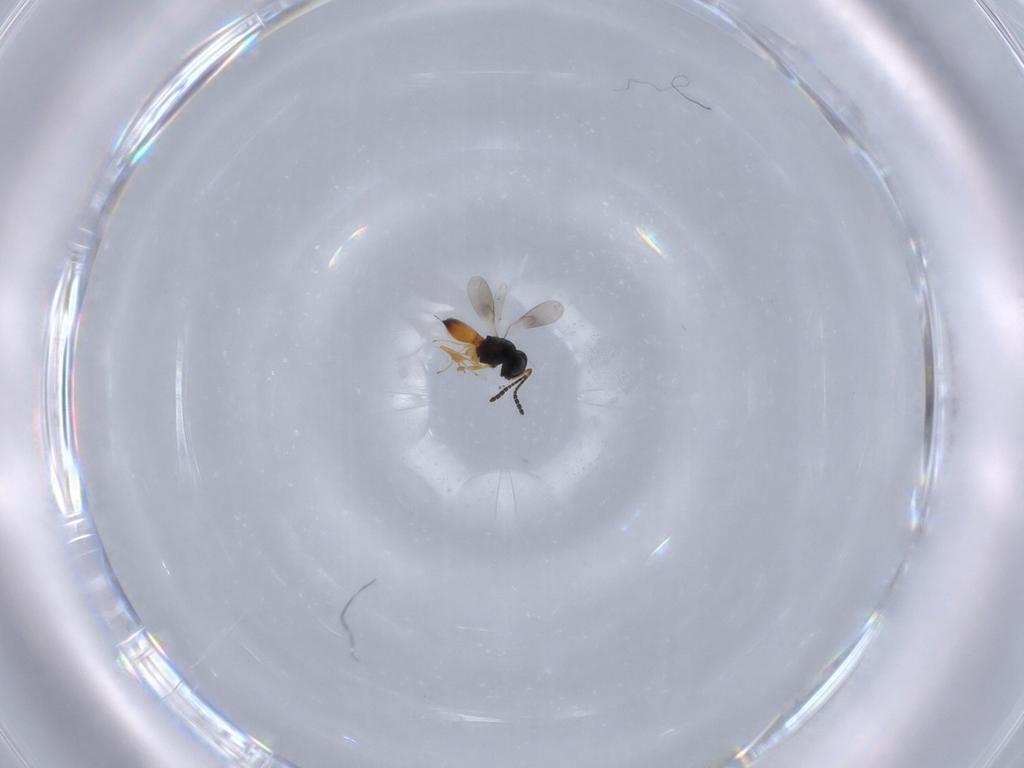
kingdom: Animalia
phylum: Arthropoda
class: Insecta
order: Hymenoptera
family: Scelionidae
